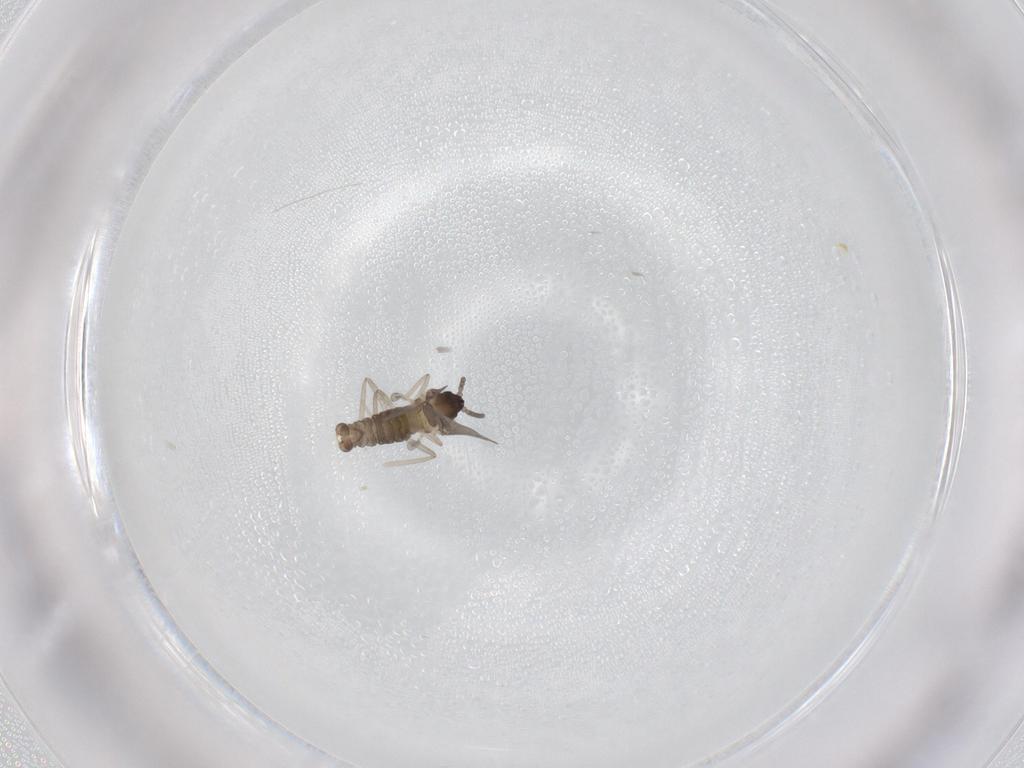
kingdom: Animalia
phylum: Arthropoda
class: Insecta
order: Diptera
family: Cecidomyiidae
